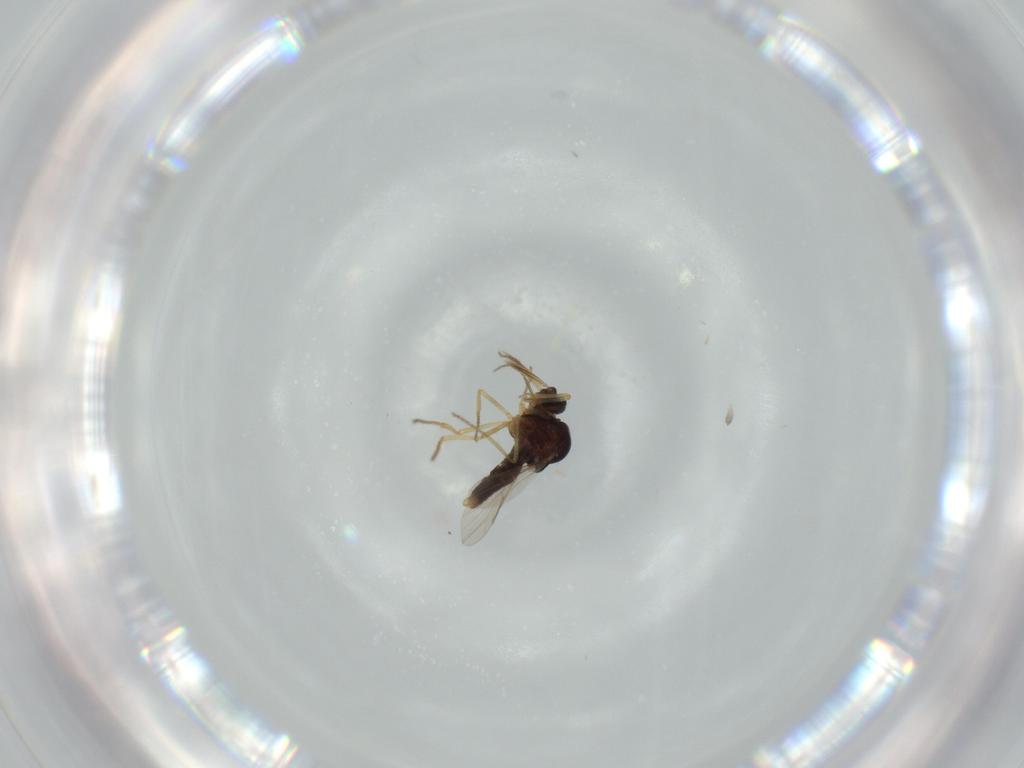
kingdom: Animalia
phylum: Arthropoda
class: Insecta
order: Diptera
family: Ceratopogonidae
